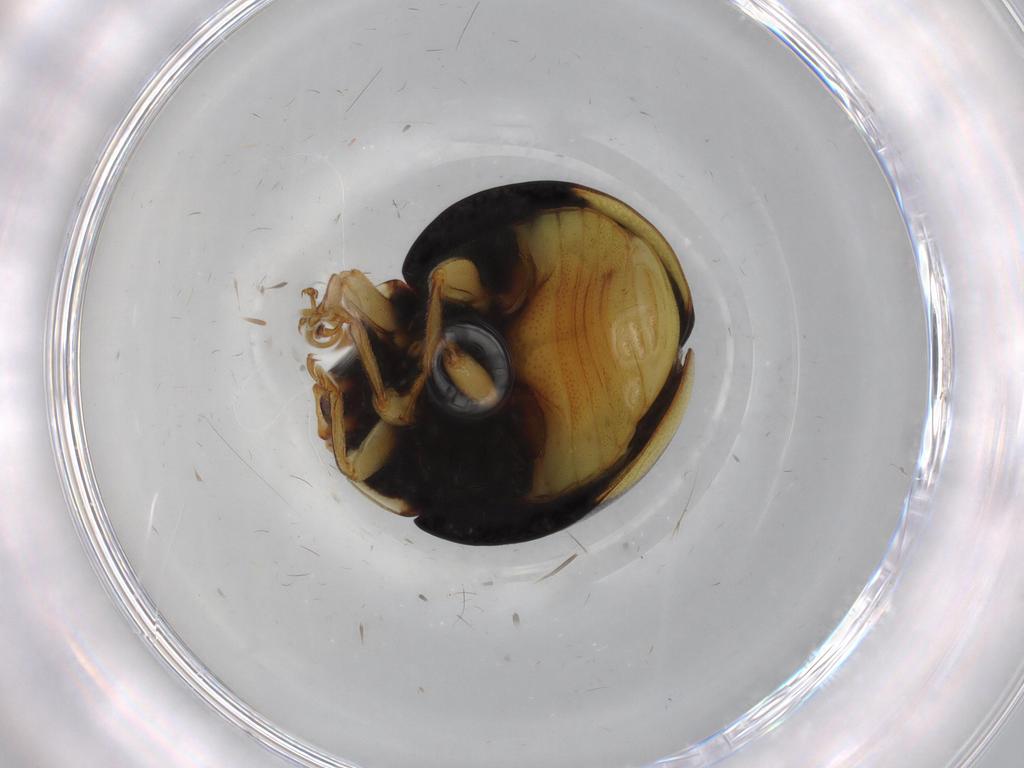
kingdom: Animalia
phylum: Arthropoda
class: Insecta
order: Coleoptera
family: Coccinellidae
